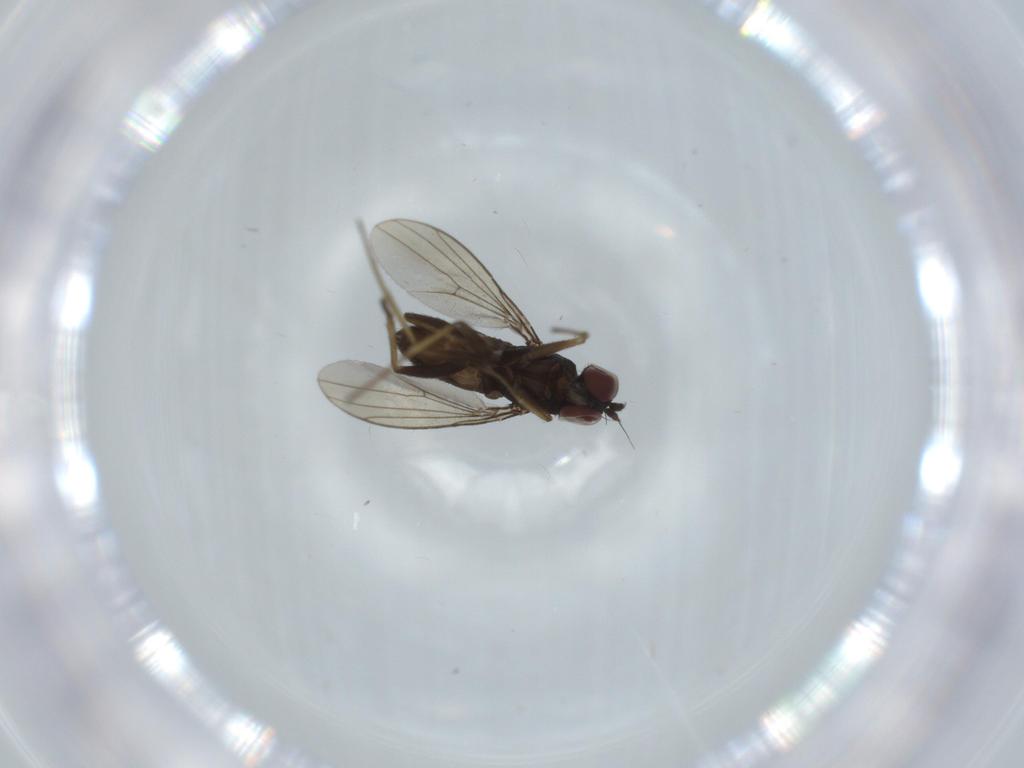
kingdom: Animalia
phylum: Arthropoda
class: Insecta
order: Diptera
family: Dolichopodidae
